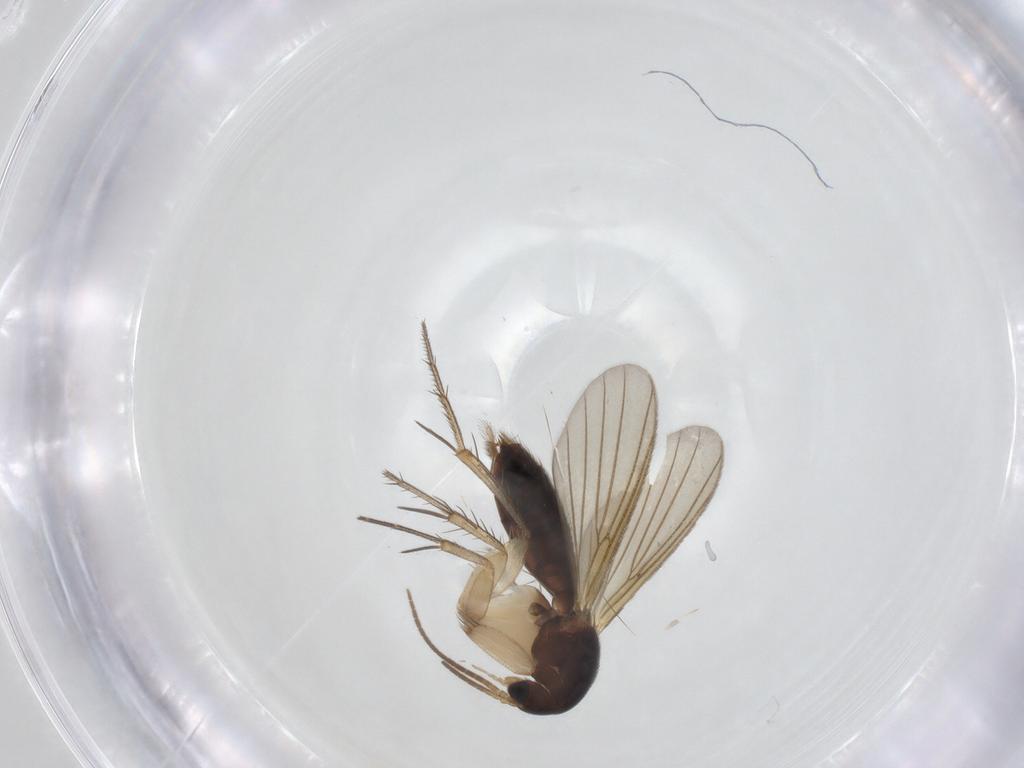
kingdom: Animalia
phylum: Arthropoda
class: Insecta
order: Diptera
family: Mycetophilidae
